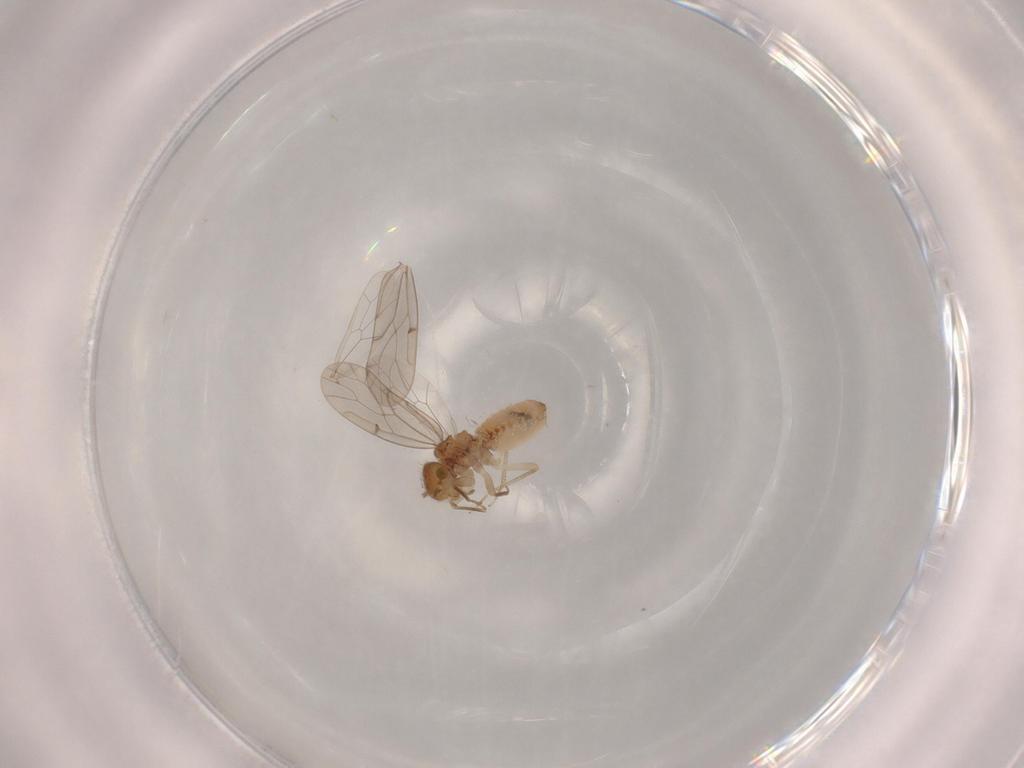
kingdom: Animalia
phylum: Arthropoda
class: Insecta
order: Psocodea
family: Ectopsocidae
